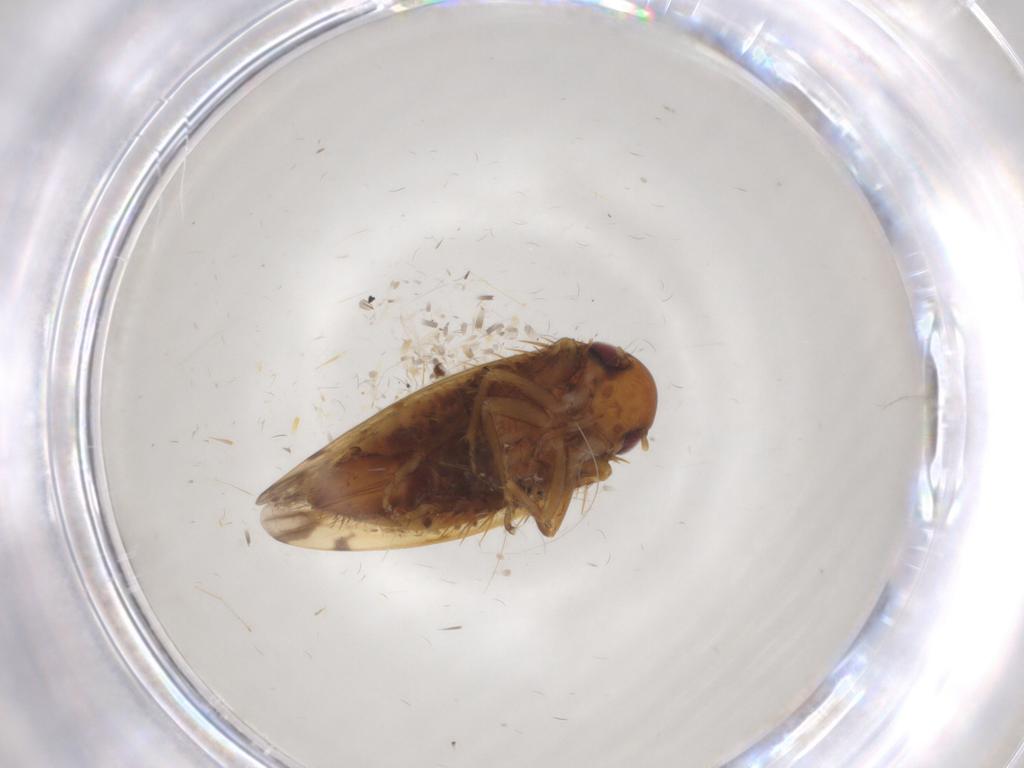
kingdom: Animalia
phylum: Arthropoda
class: Insecta
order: Hemiptera
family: Cicadellidae
